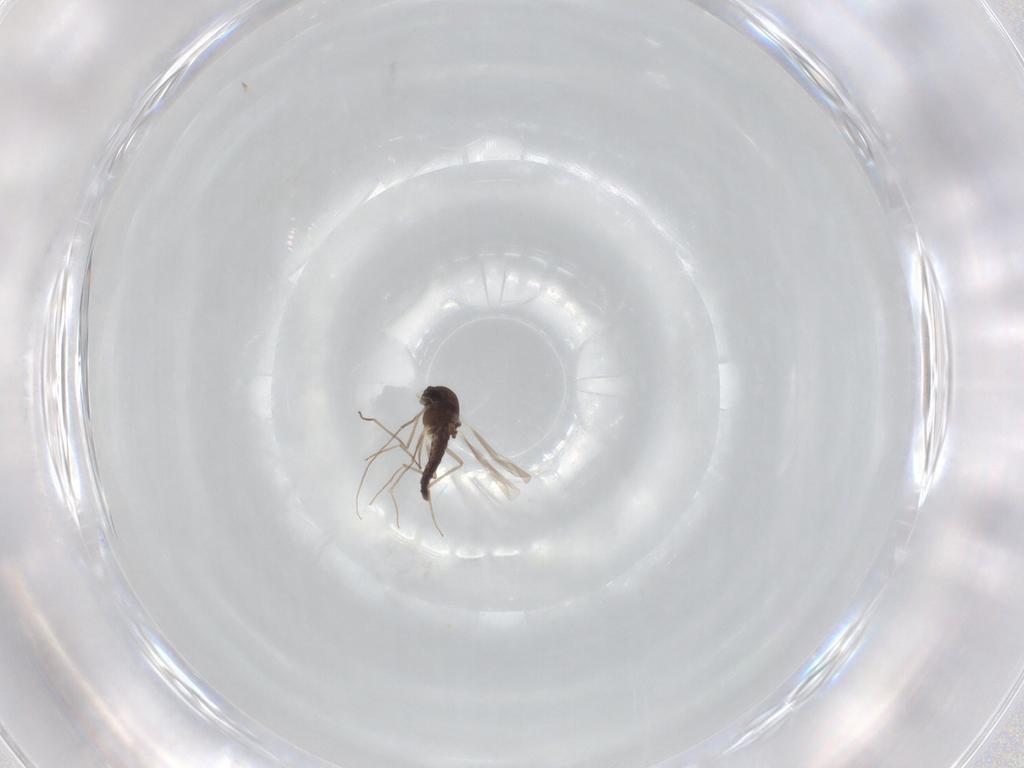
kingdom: Animalia
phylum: Arthropoda
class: Insecta
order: Diptera
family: Chironomidae
